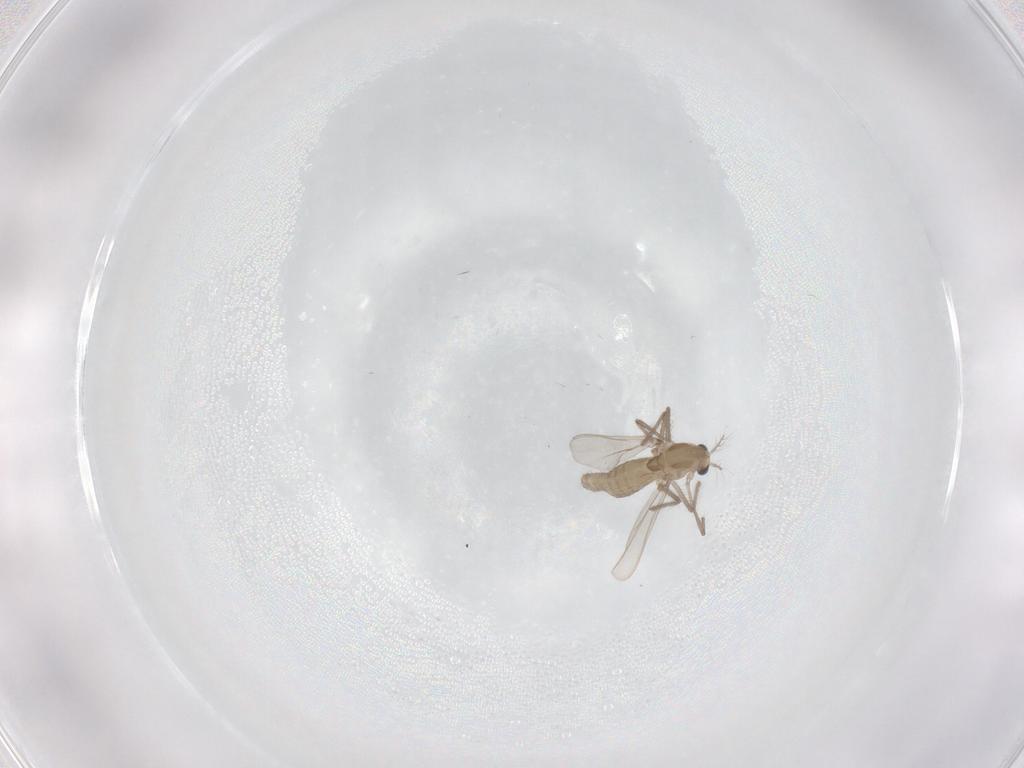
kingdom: Animalia
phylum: Arthropoda
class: Insecta
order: Diptera
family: Chironomidae
